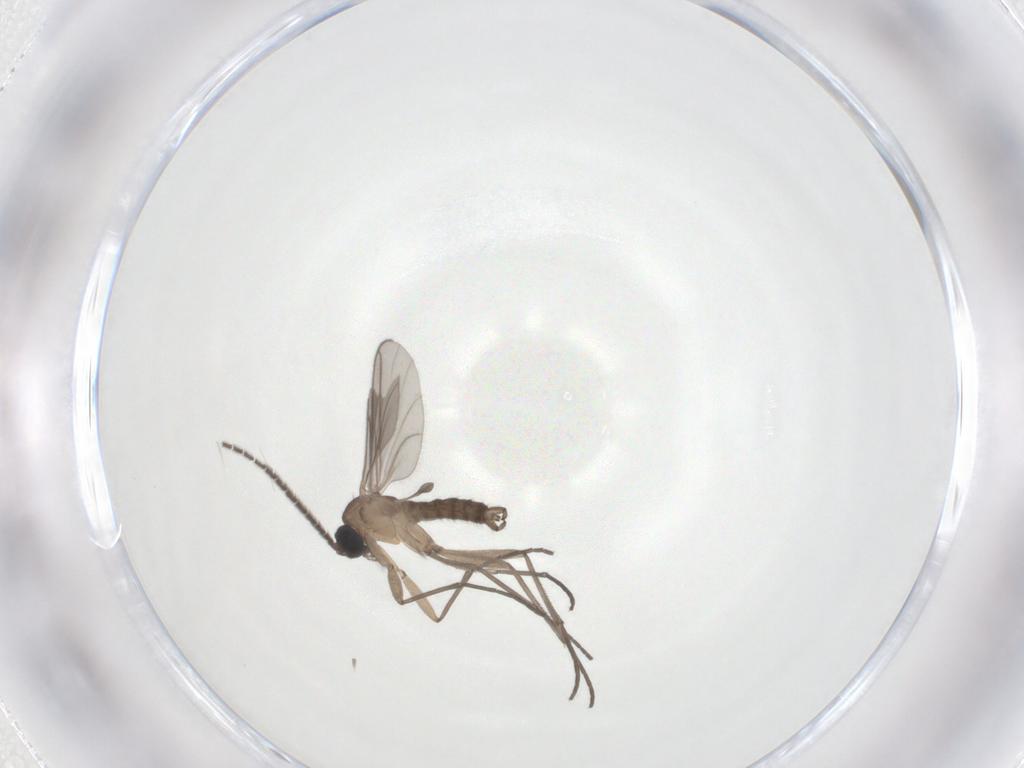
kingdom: Animalia
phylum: Arthropoda
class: Insecta
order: Diptera
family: Sciaridae
